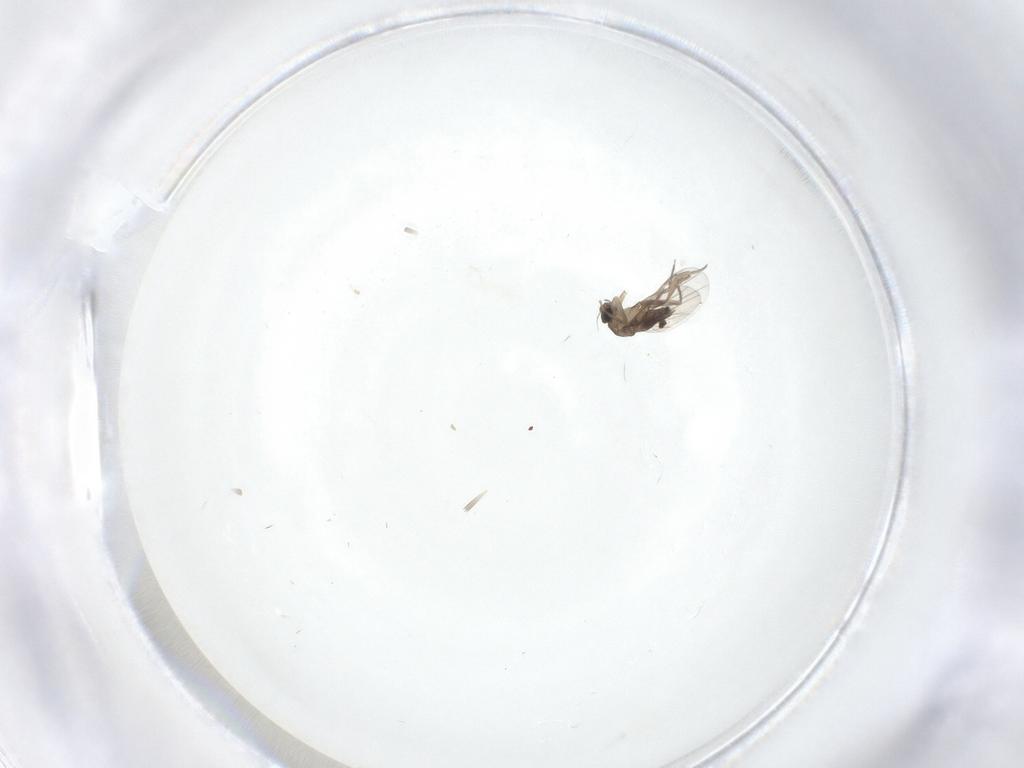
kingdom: Animalia
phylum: Arthropoda
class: Insecta
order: Diptera
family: Phoridae
